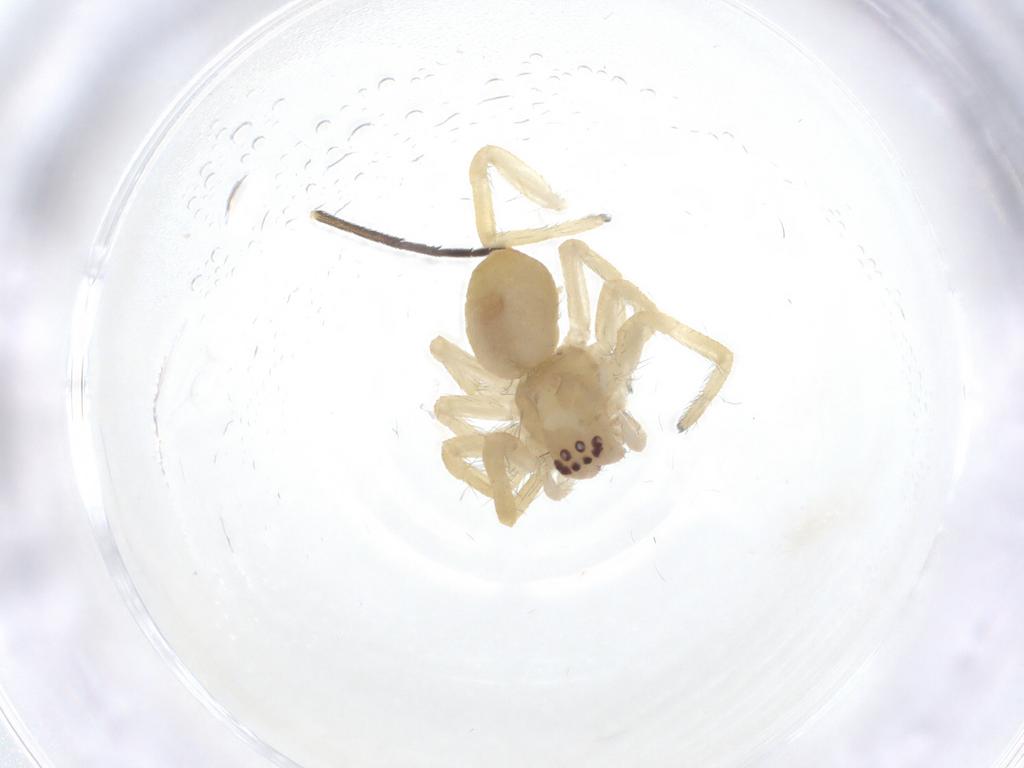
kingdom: Animalia
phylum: Arthropoda
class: Arachnida
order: Araneae
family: Mimetidae
